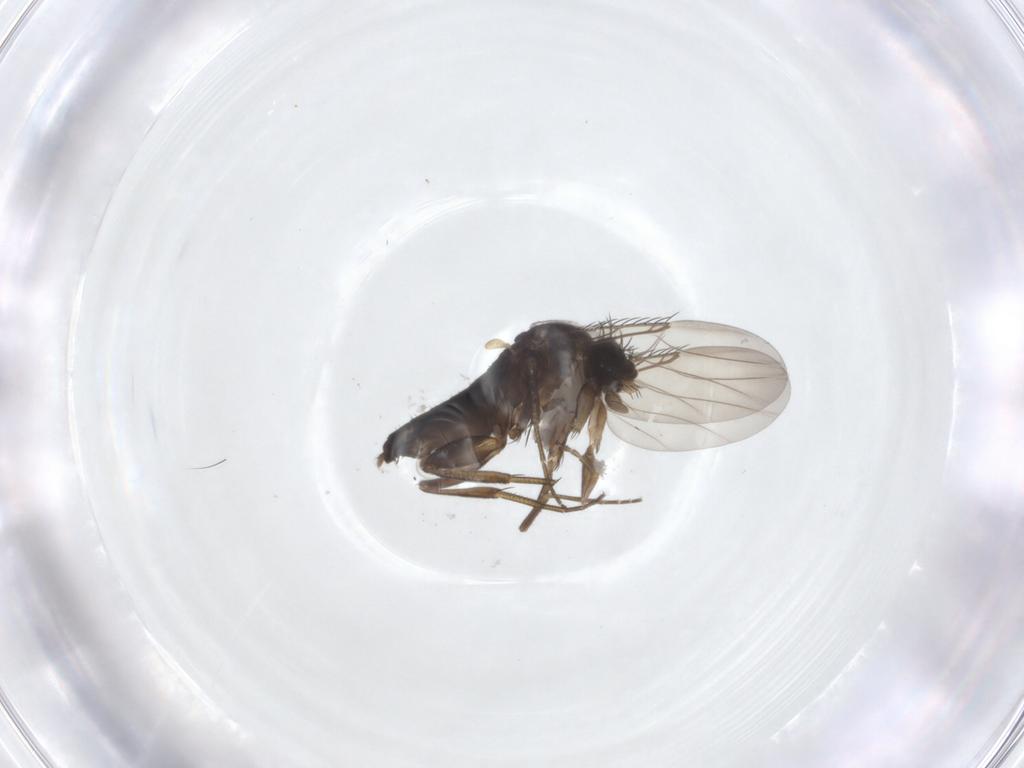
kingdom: Animalia
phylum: Arthropoda
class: Insecta
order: Diptera
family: Phoridae
